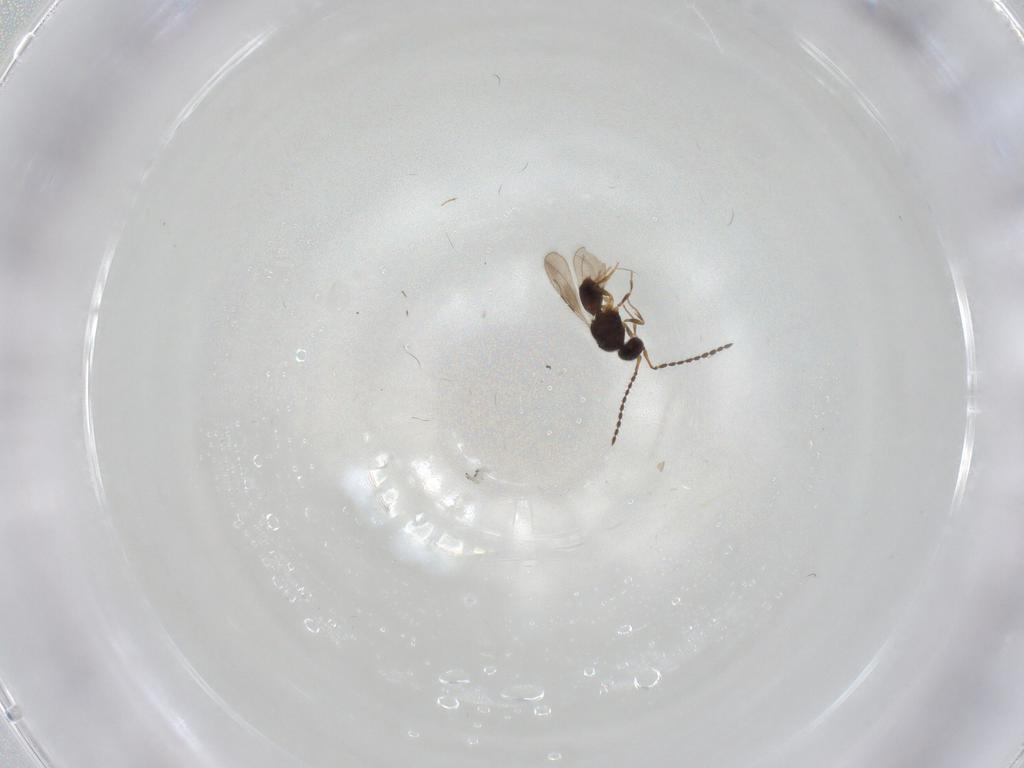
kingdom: Animalia
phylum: Arthropoda
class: Insecta
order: Hymenoptera
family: Ceraphronidae
